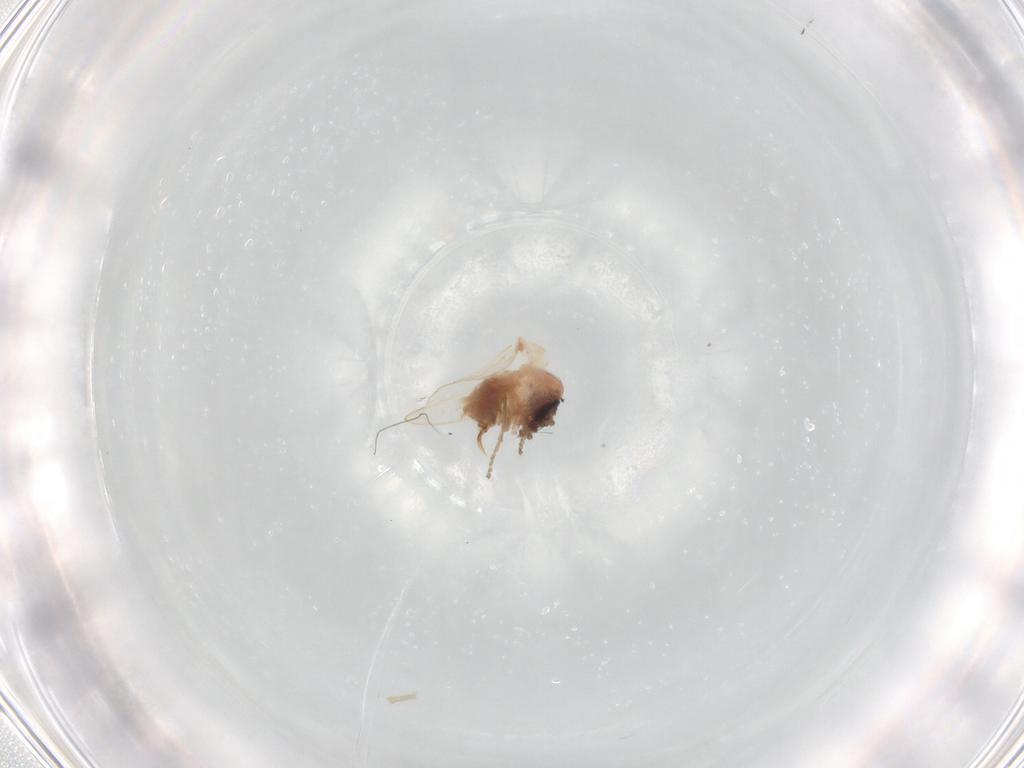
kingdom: Animalia
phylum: Arthropoda
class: Insecta
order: Diptera
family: Psychodidae
